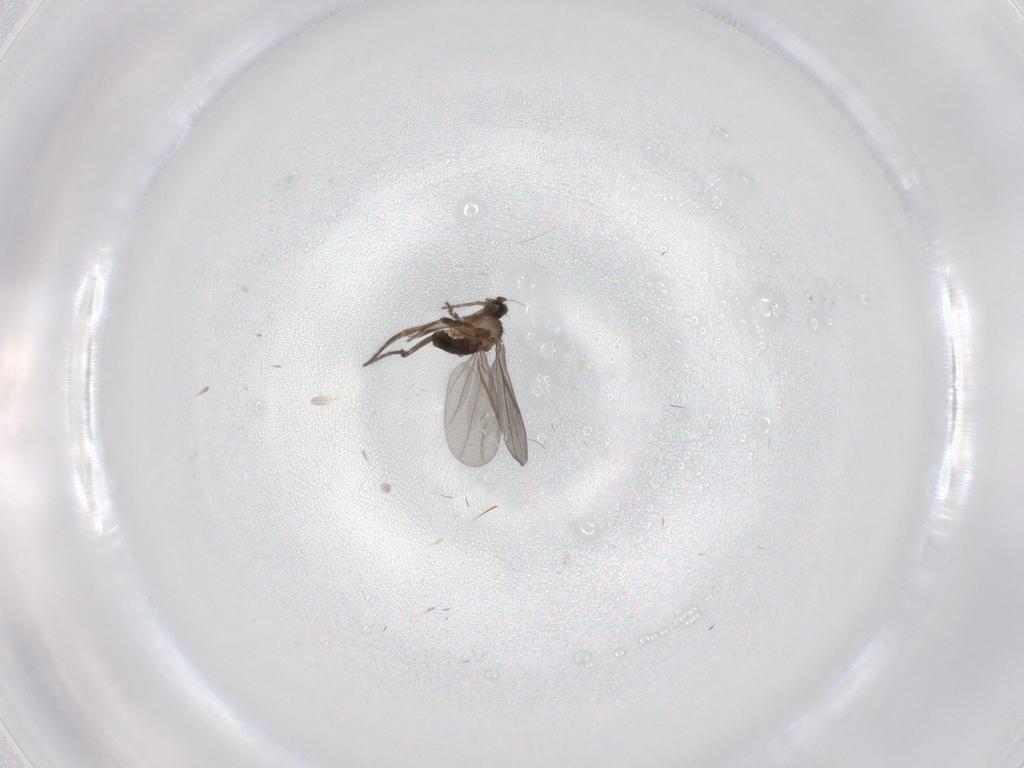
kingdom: Animalia
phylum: Arthropoda
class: Insecta
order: Diptera
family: Phoridae
